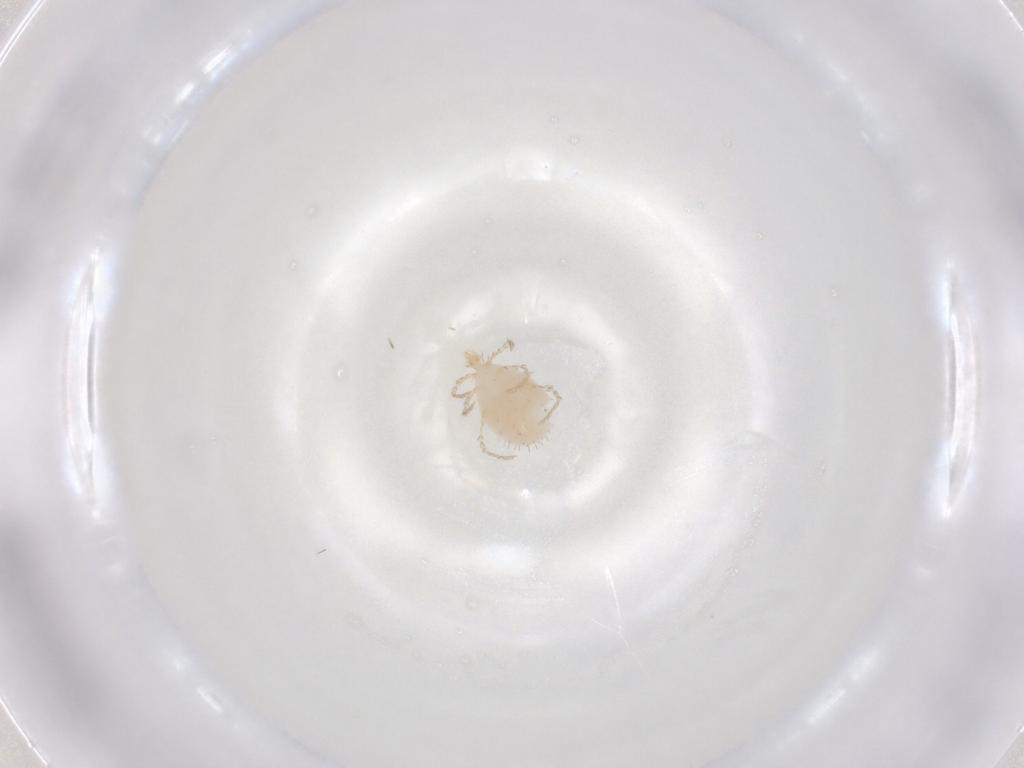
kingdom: Animalia
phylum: Arthropoda
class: Arachnida
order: Trombidiformes
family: Erythraeidae
